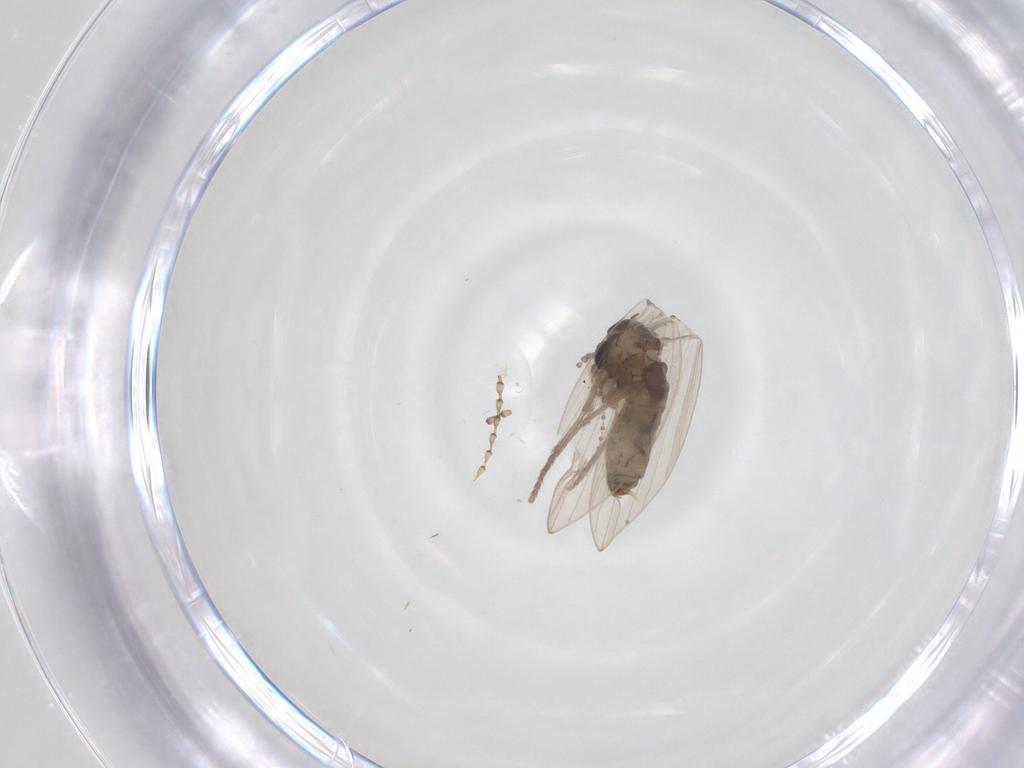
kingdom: Animalia
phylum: Arthropoda
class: Insecta
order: Diptera
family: Psychodidae
